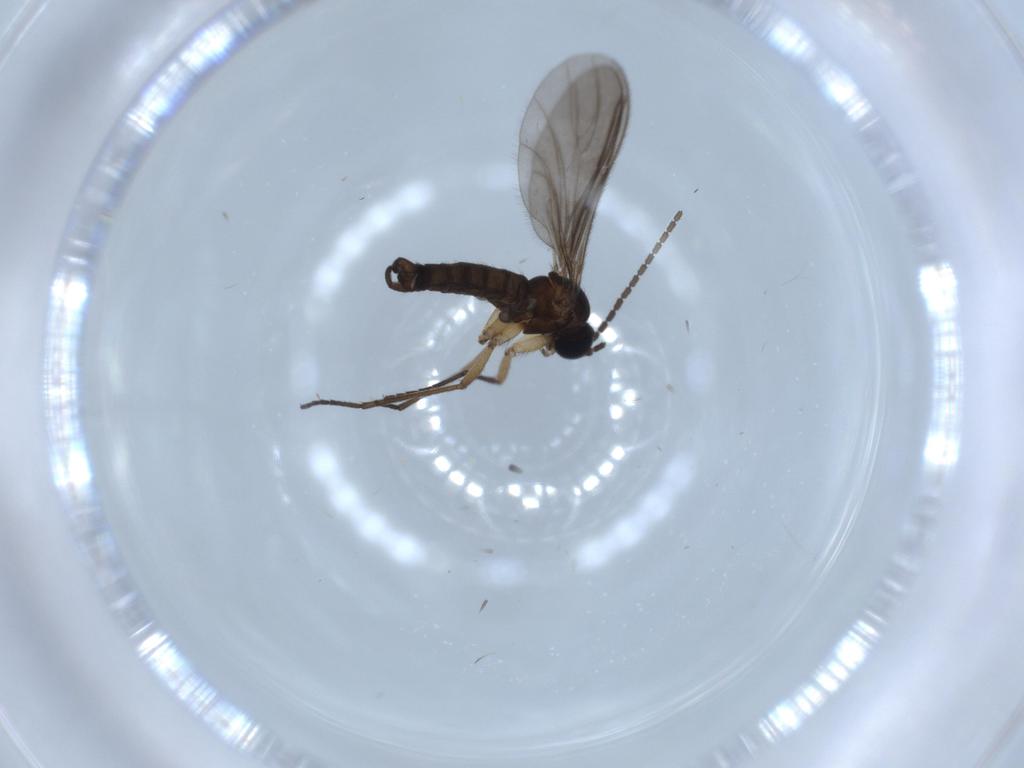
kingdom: Animalia
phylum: Arthropoda
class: Insecta
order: Diptera
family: Sciaridae
